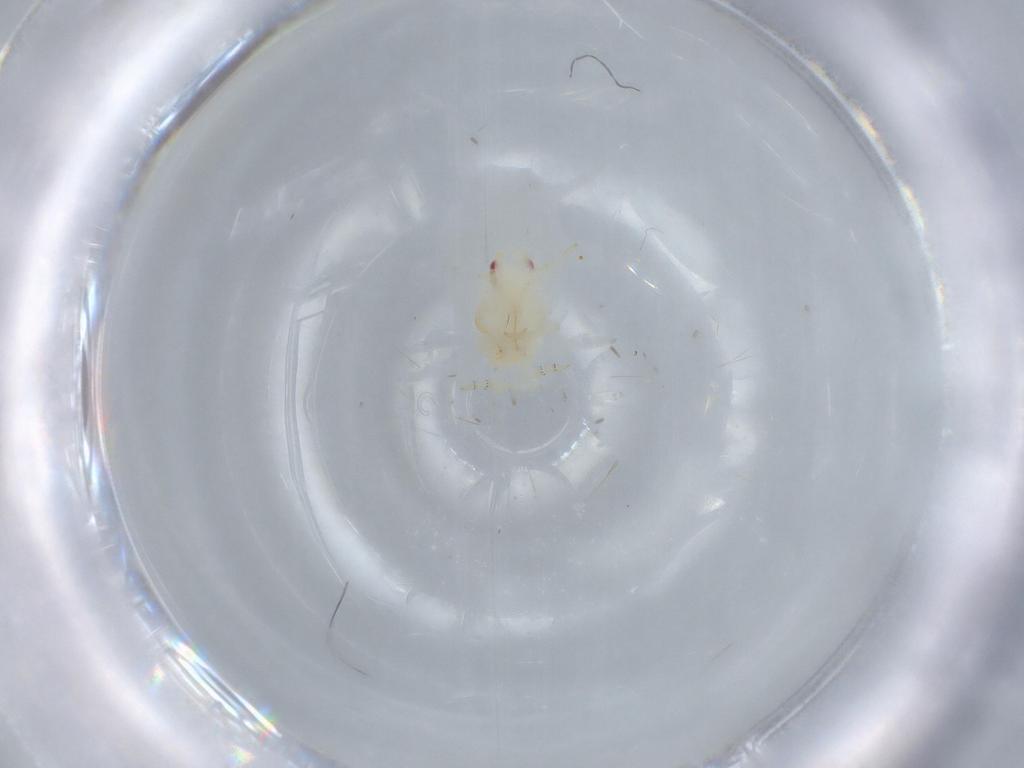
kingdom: Animalia
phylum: Arthropoda
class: Insecta
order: Hemiptera
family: Flatidae
